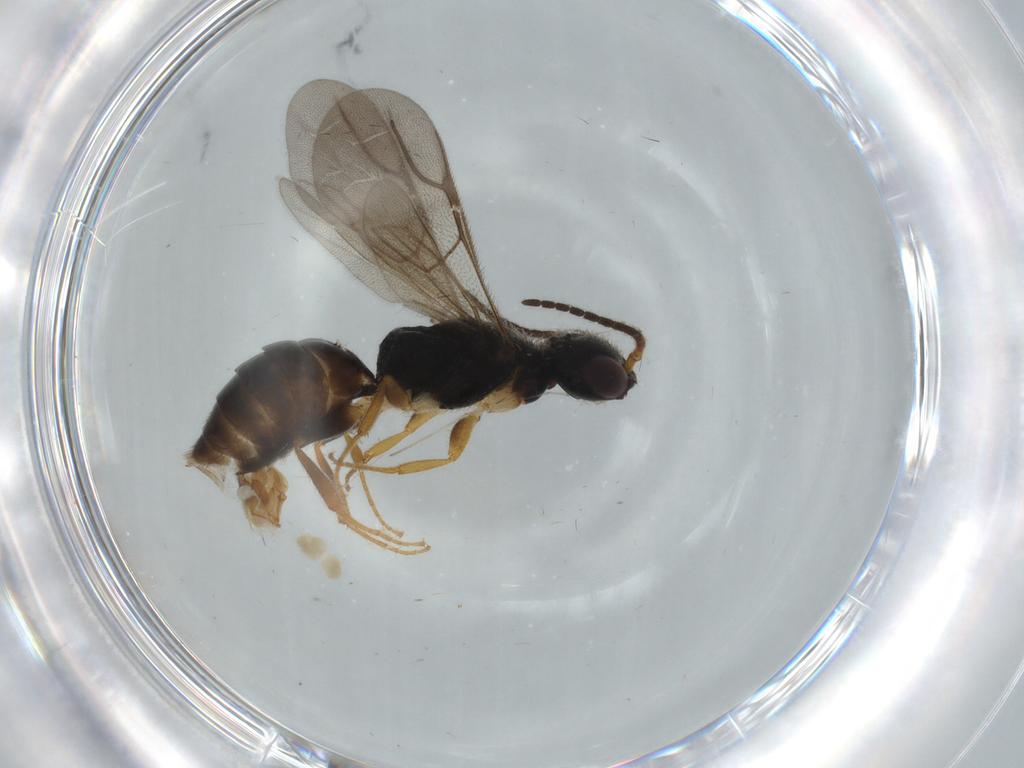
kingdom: Animalia
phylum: Arthropoda
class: Insecta
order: Hymenoptera
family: Bethylidae
